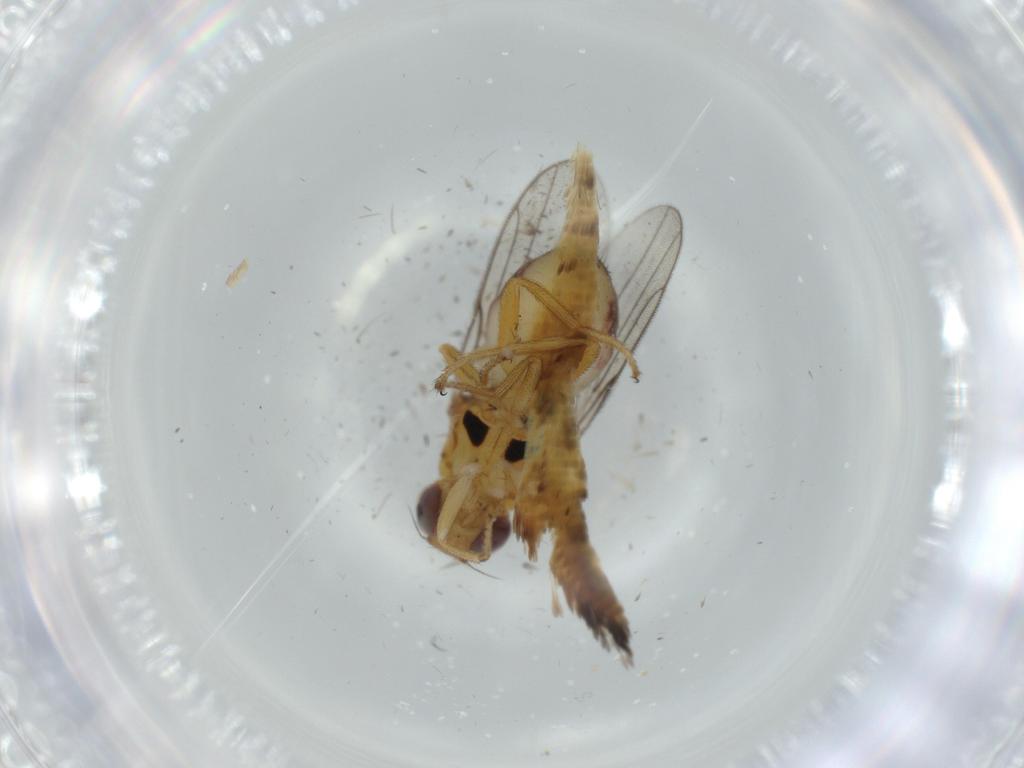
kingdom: Animalia
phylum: Arthropoda
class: Insecta
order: Diptera
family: Chloropidae
